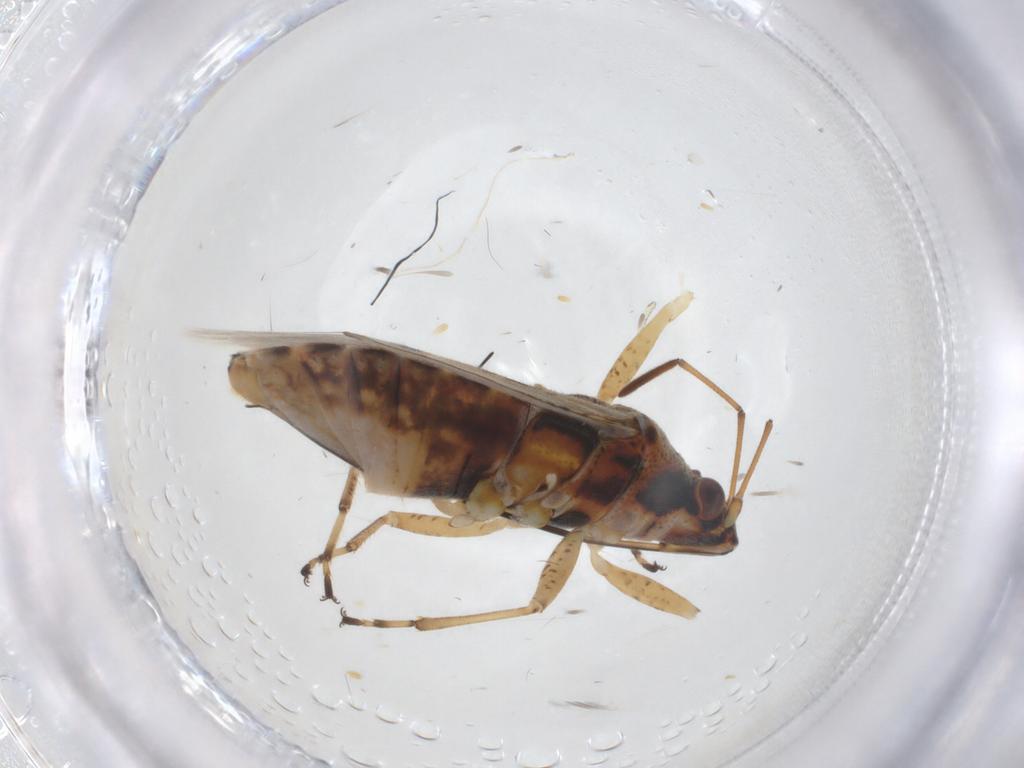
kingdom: Animalia
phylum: Arthropoda
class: Insecta
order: Hemiptera
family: Lygaeidae
